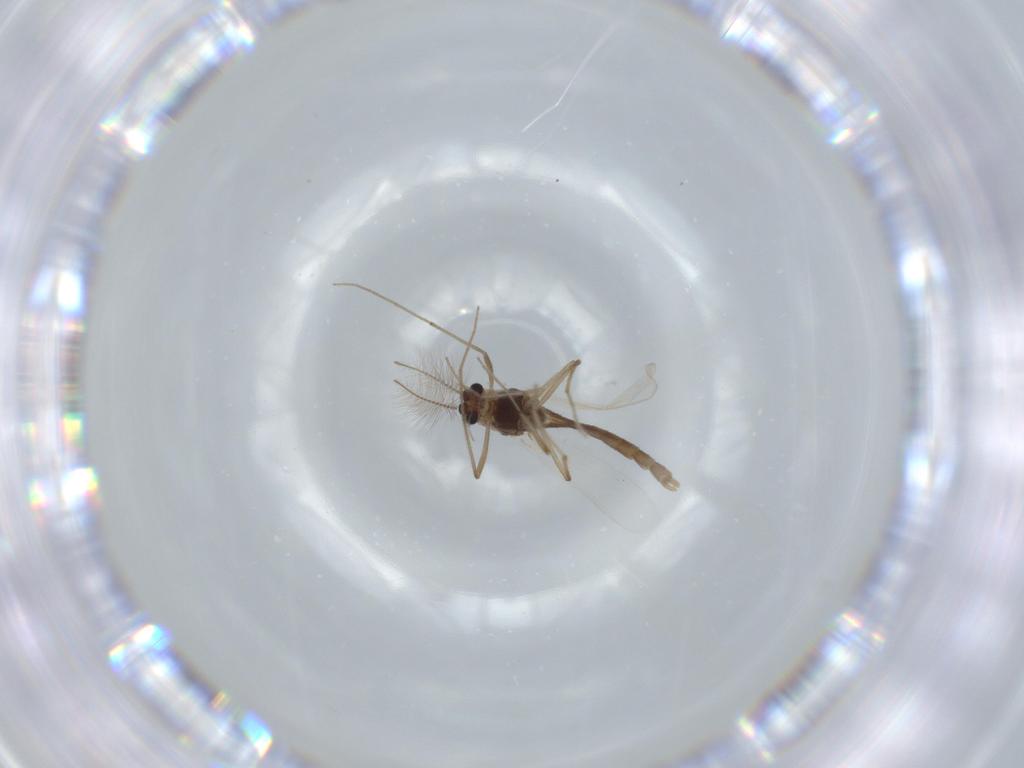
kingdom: Animalia
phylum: Arthropoda
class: Insecta
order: Diptera
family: Chironomidae
